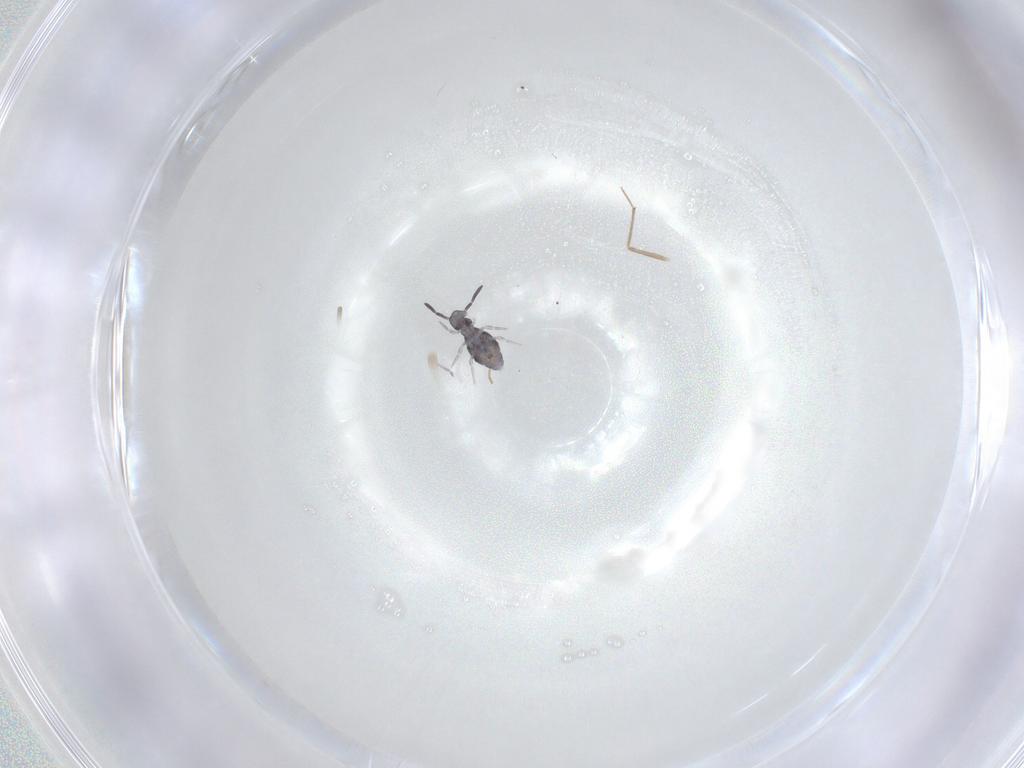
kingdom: Animalia
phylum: Arthropoda
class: Collembola
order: Symphypleona
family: Katiannidae
